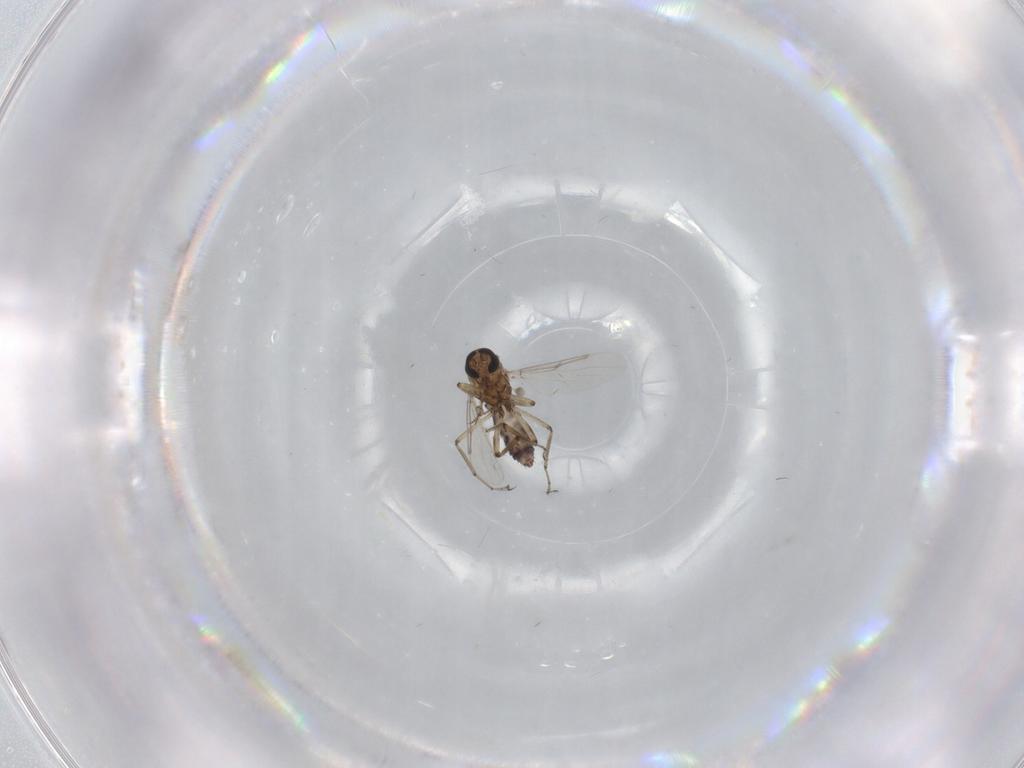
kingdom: Animalia
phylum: Arthropoda
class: Insecta
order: Diptera
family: Ceratopogonidae
